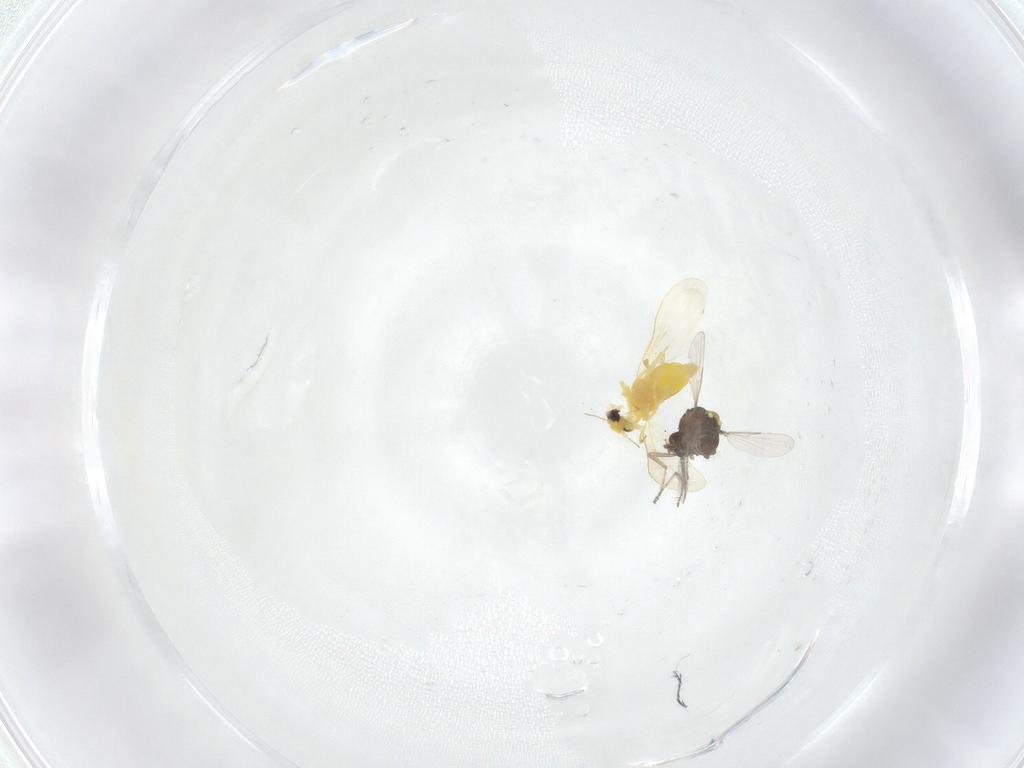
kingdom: Animalia
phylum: Arthropoda
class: Insecta
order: Diptera
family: Ceratopogonidae
